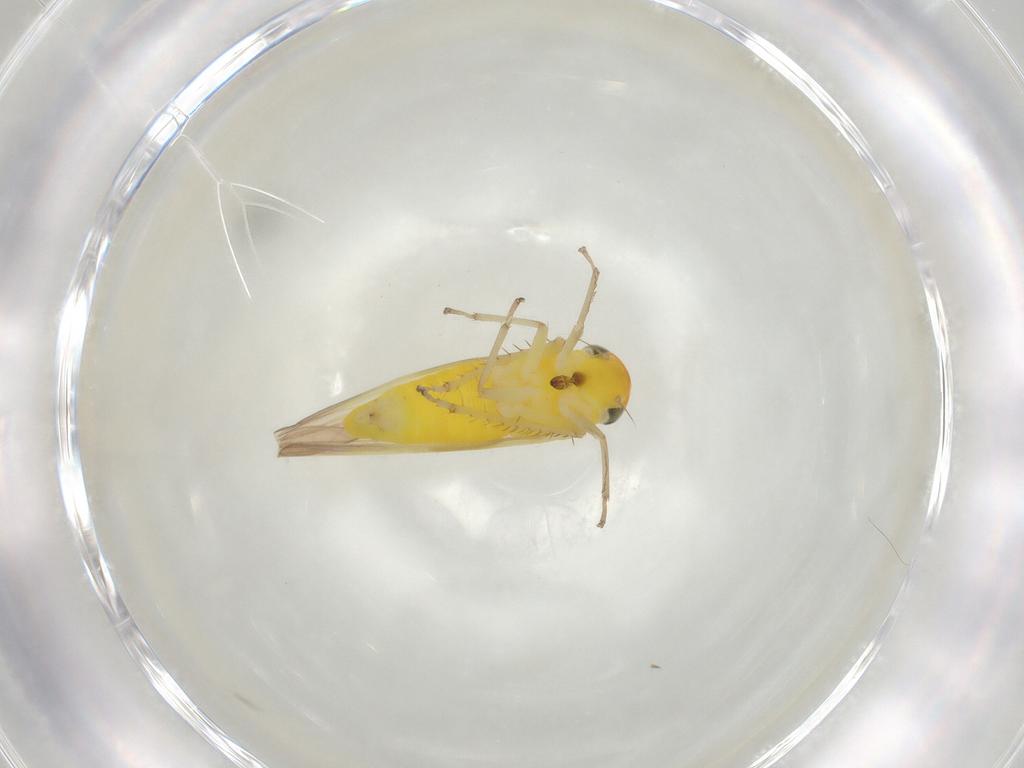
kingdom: Animalia
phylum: Arthropoda
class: Insecta
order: Hemiptera
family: Cicadellidae
